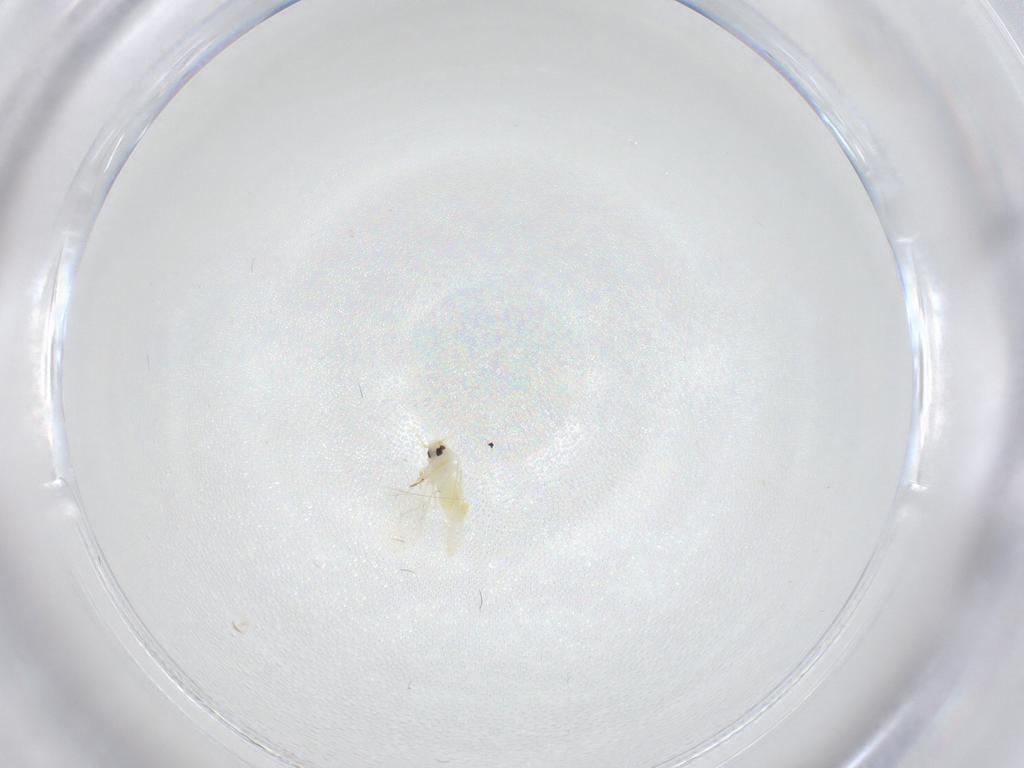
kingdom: Animalia
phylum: Arthropoda
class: Insecta
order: Hemiptera
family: Aleyrodidae
